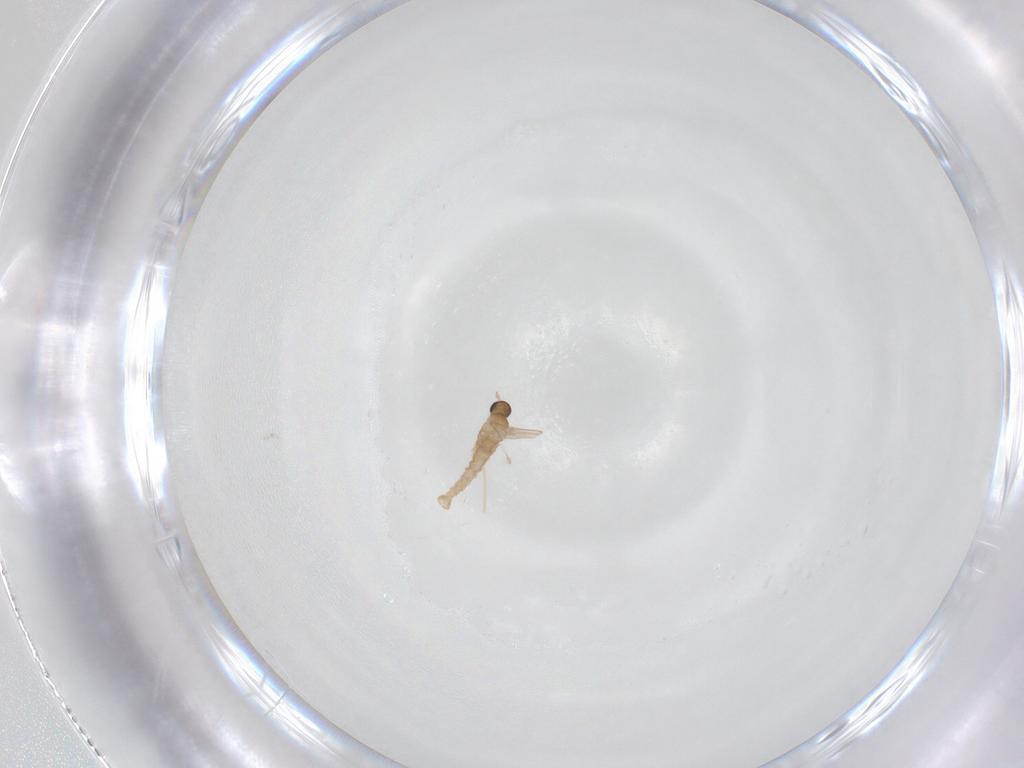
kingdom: Animalia
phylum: Arthropoda
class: Insecta
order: Diptera
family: Cecidomyiidae
